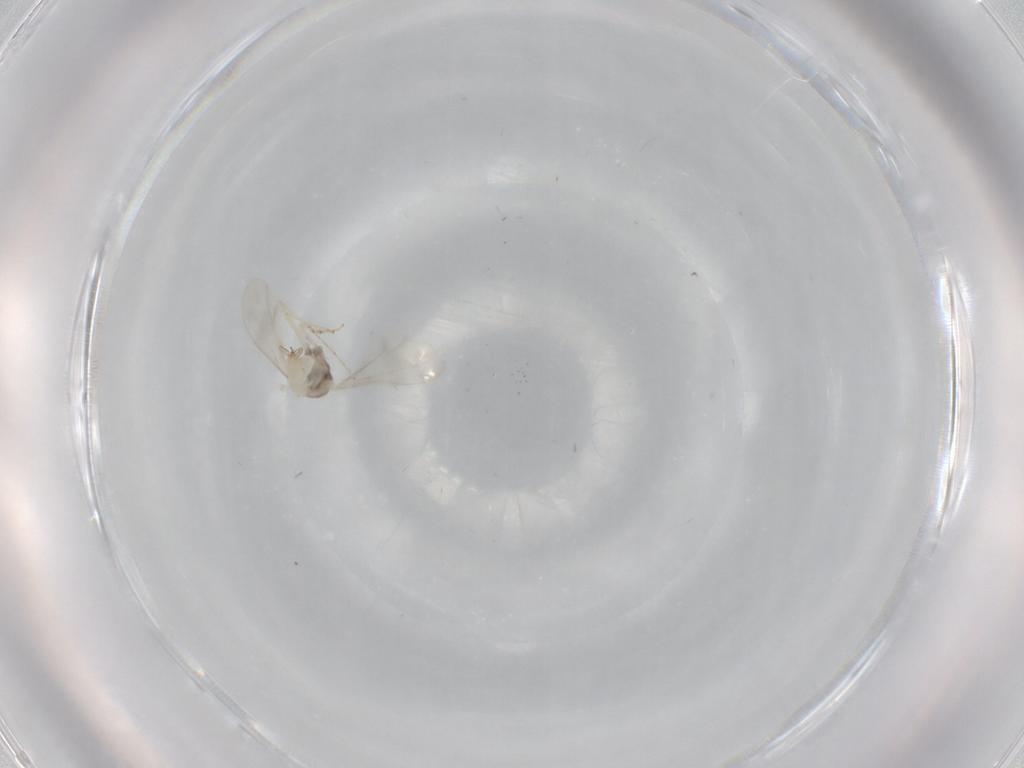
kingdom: Animalia
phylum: Arthropoda
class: Insecta
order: Diptera
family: Cecidomyiidae
